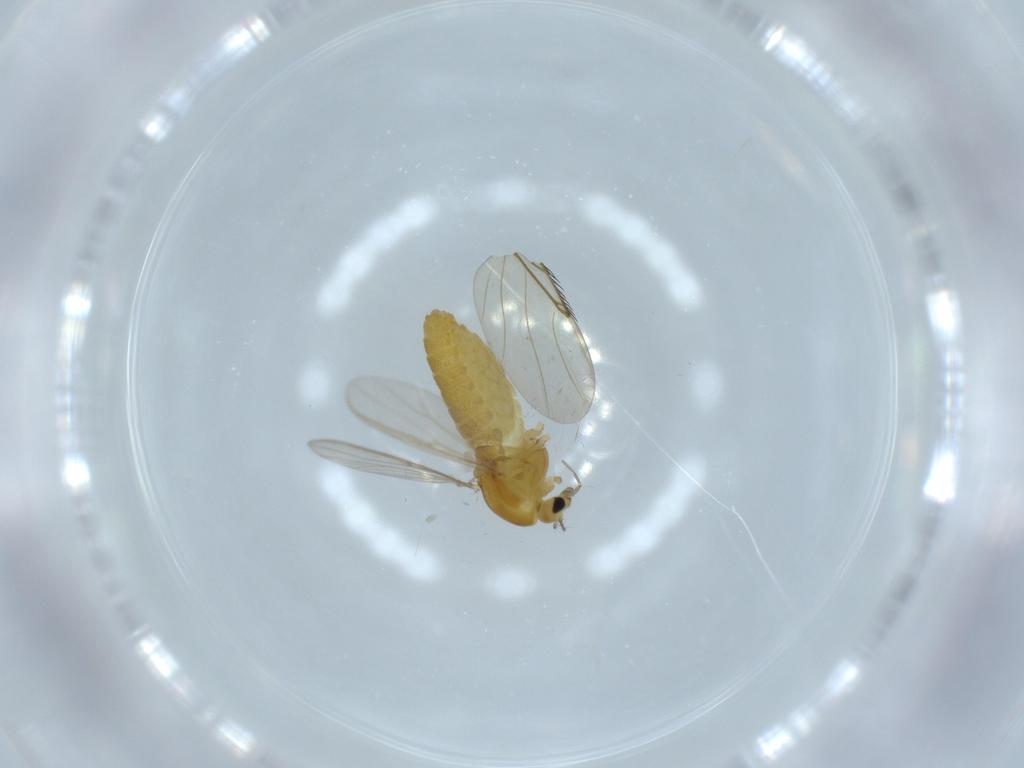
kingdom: Animalia
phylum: Arthropoda
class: Insecta
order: Diptera
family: Chironomidae
